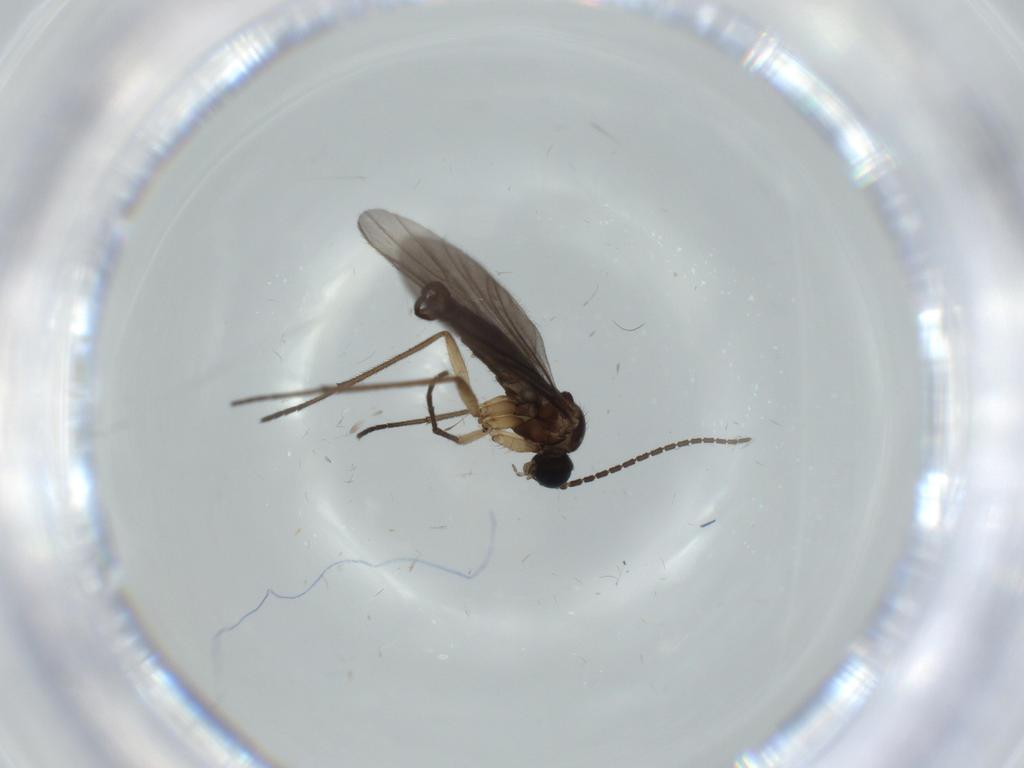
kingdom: Animalia
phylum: Arthropoda
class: Insecta
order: Diptera
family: Sciaridae
